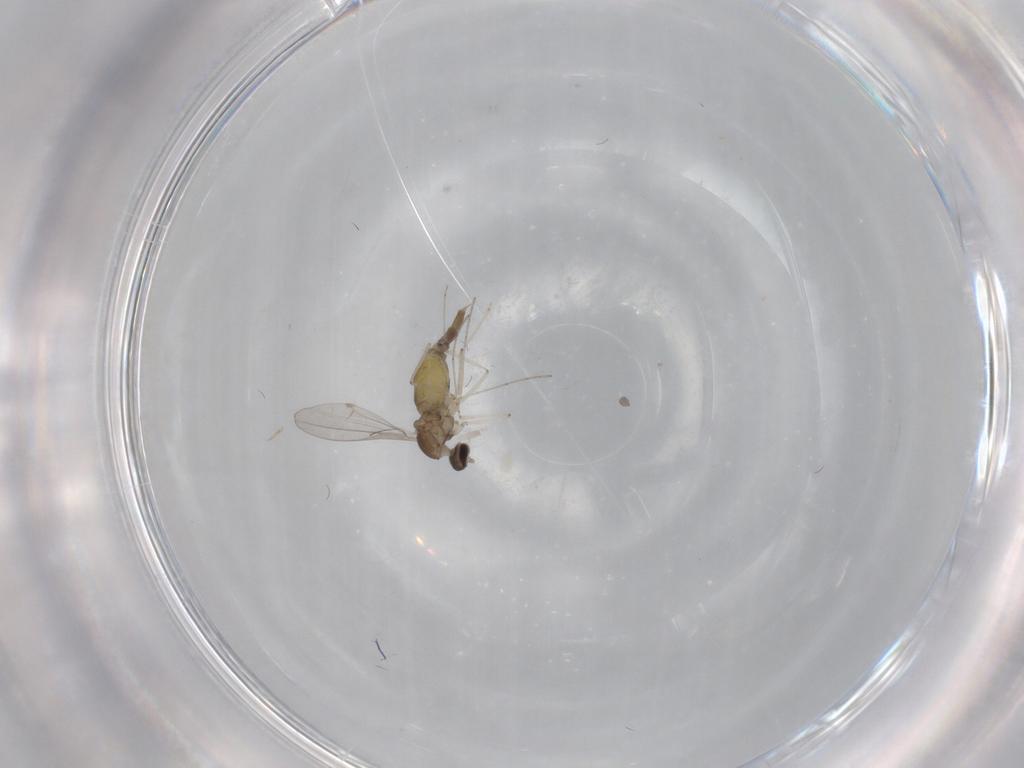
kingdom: Animalia
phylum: Arthropoda
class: Insecta
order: Diptera
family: Cecidomyiidae
